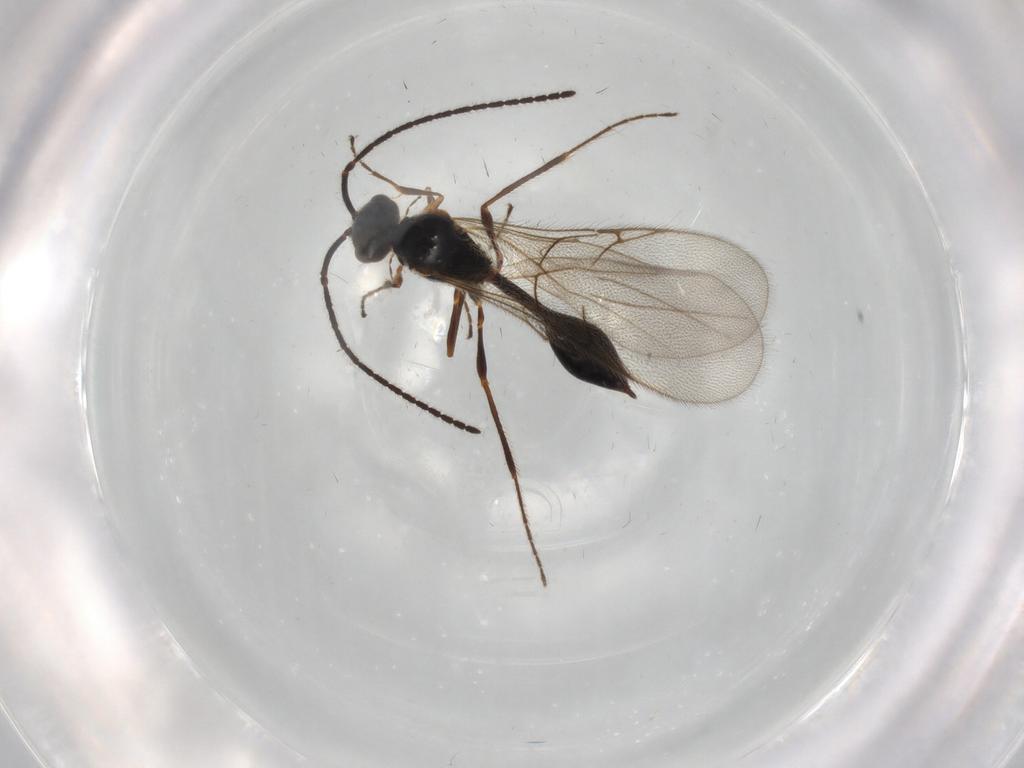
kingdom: Animalia
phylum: Arthropoda
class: Insecta
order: Hymenoptera
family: Diapriidae
